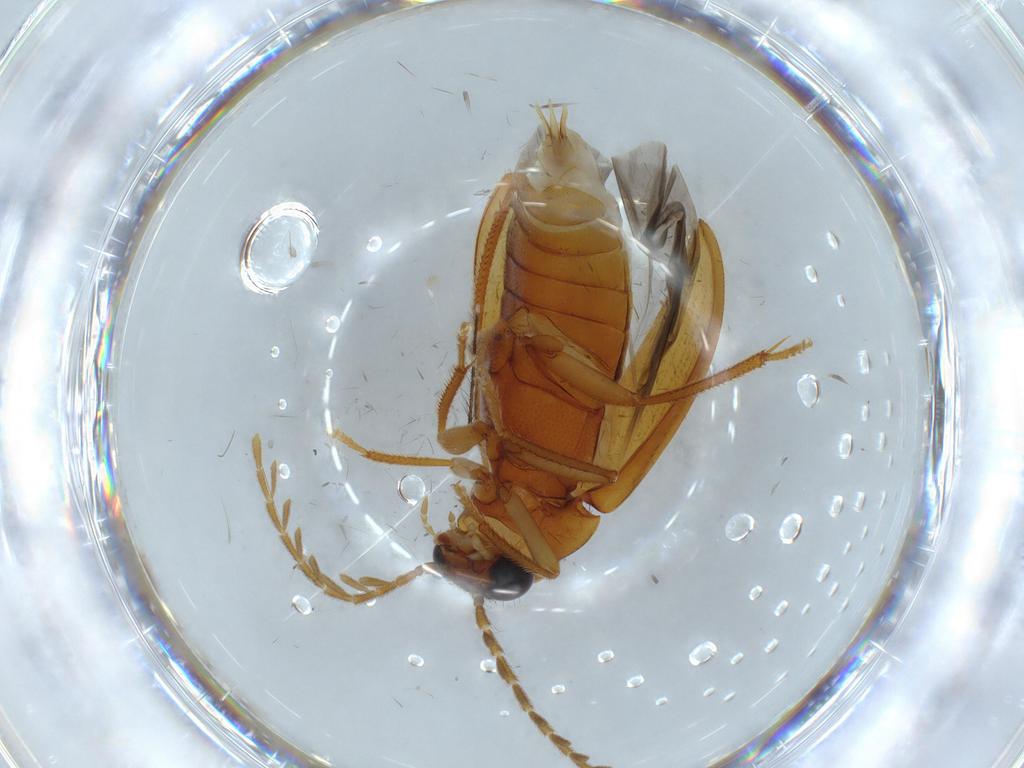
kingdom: Animalia
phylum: Arthropoda
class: Insecta
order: Coleoptera
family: Ptilodactylidae
